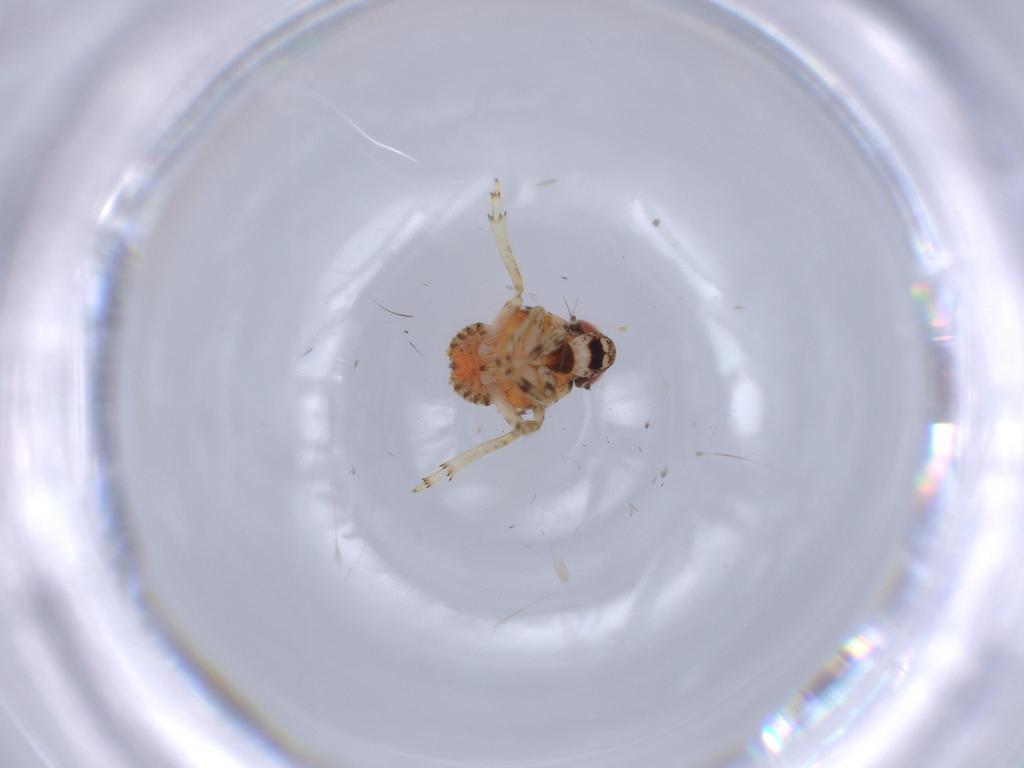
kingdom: Animalia
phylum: Arthropoda
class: Insecta
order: Hemiptera
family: Issidae
